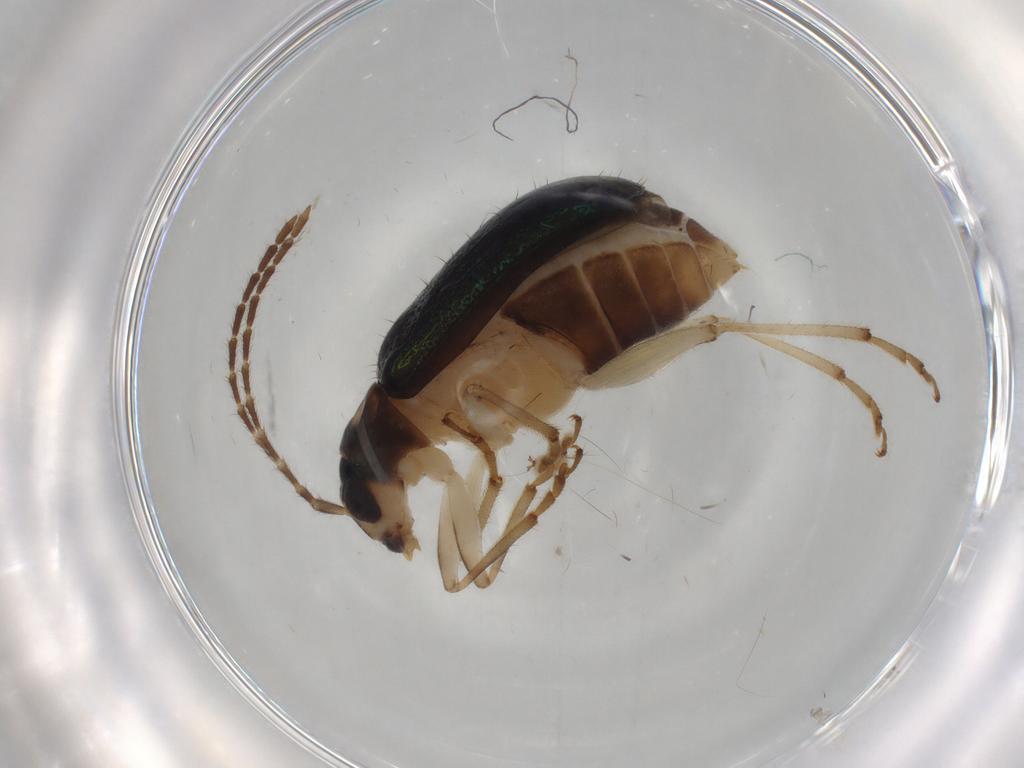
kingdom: Animalia
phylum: Arthropoda
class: Insecta
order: Coleoptera
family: Chrysomelidae
